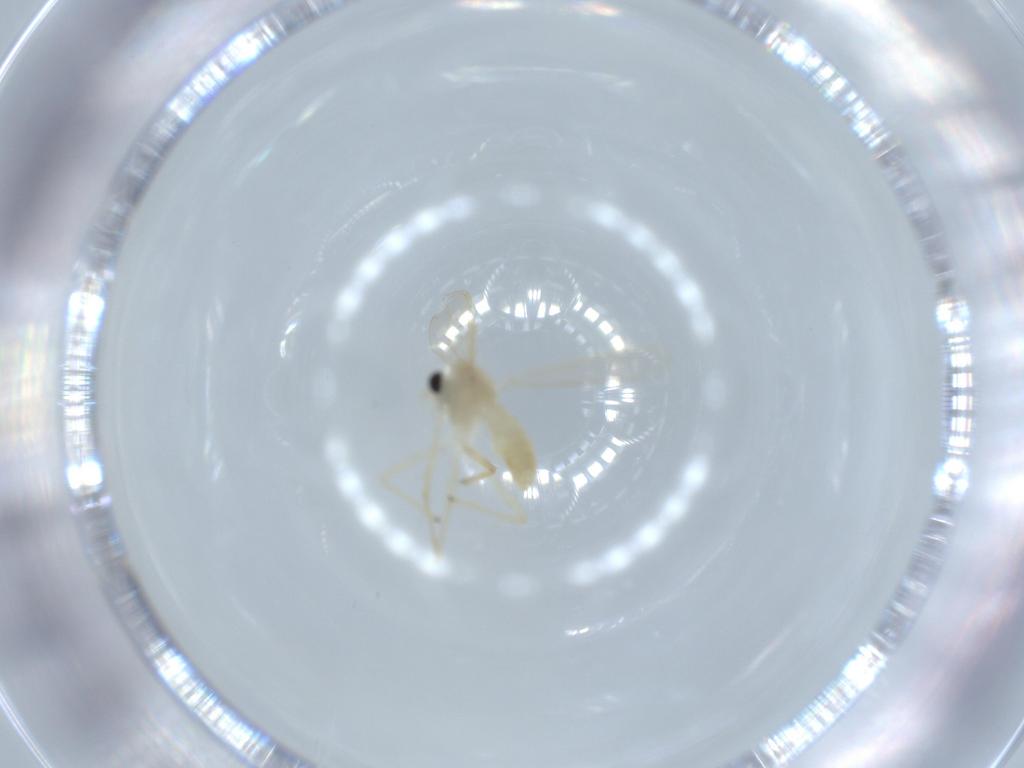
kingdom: Animalia
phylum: Arthropoda
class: Insecta
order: Diptera
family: Chironomidae
